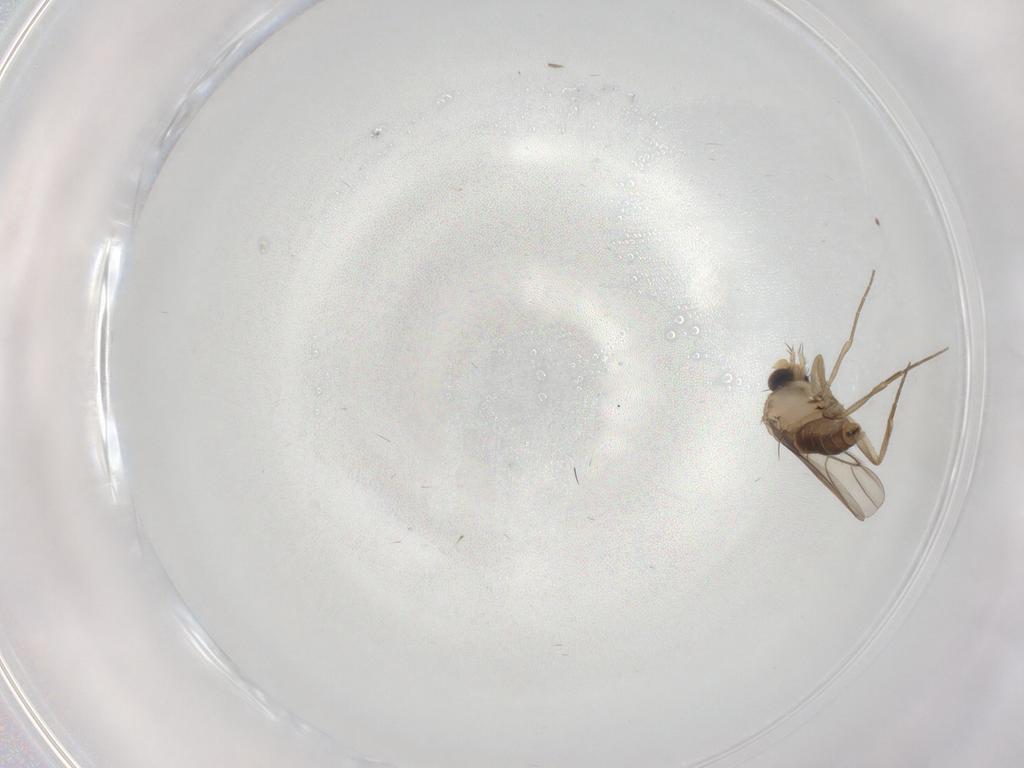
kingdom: Animalia
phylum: Arthropoda
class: Insecta
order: Diptera
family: Phoridae
